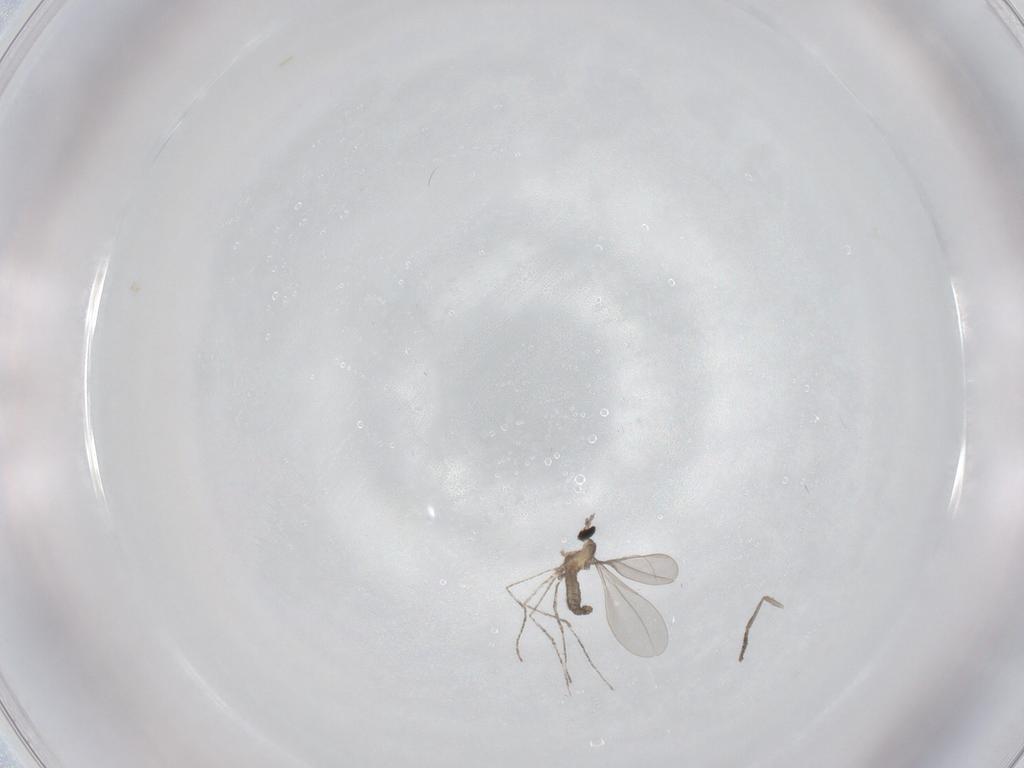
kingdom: Animalia
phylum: Arthropoda
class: Insecta
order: Diptera
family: Cecidomyiidae
